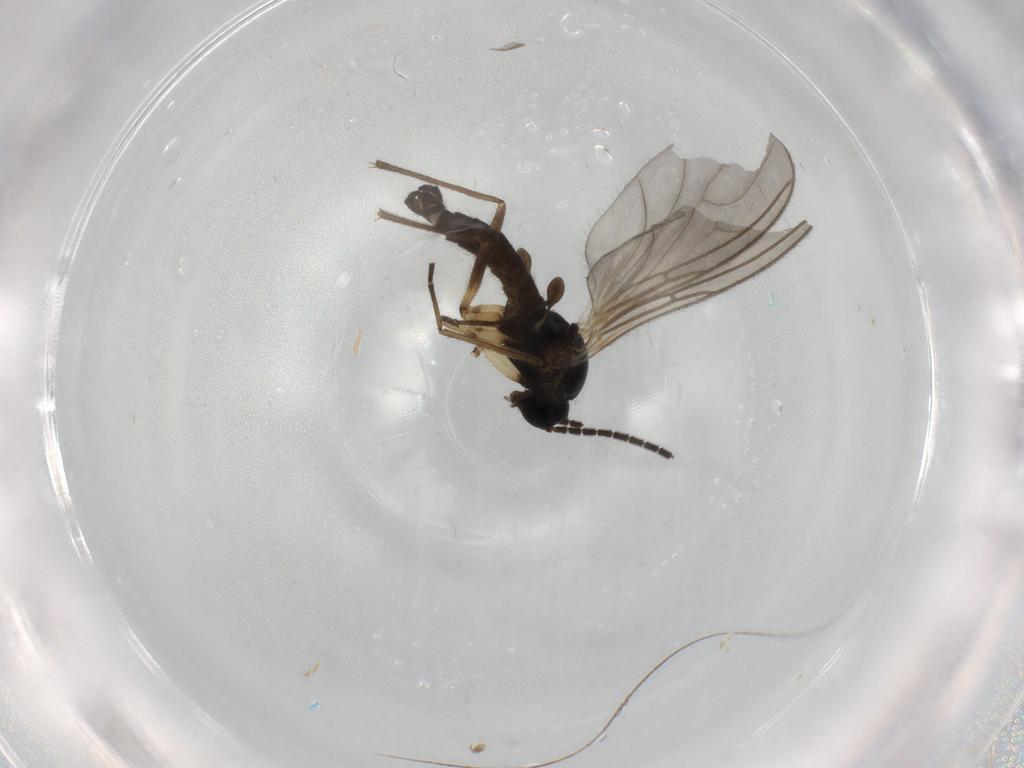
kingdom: Animalia
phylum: Arthropoda
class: Insecta
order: Diptera
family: Sciaridae
